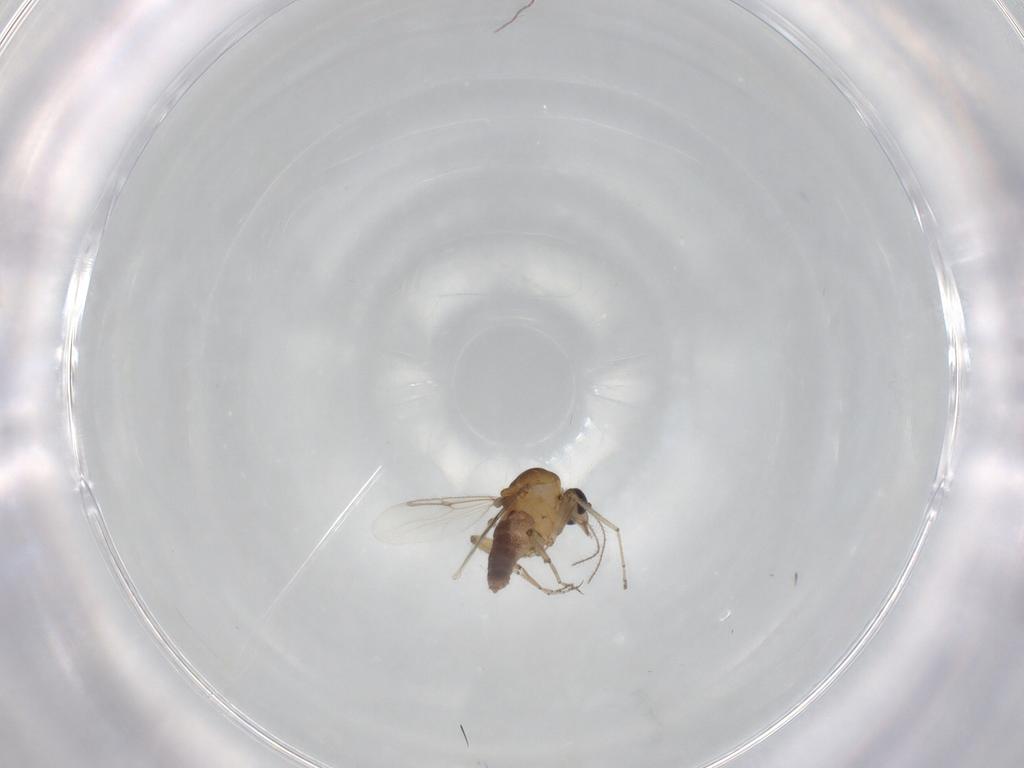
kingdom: Animalia
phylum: Arthropoda
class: Insecta
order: Diptera
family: Ceratopogonidae
